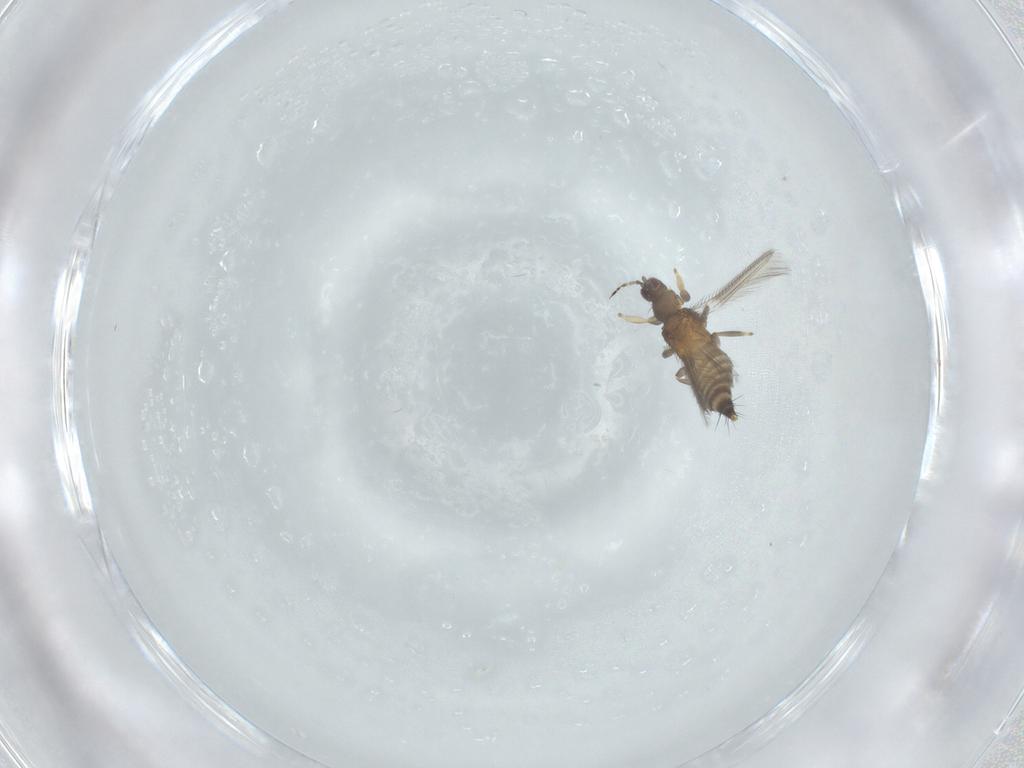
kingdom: Animalia
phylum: Arthropoda
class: Insecta
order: Thysanoptera
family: Thripidae
